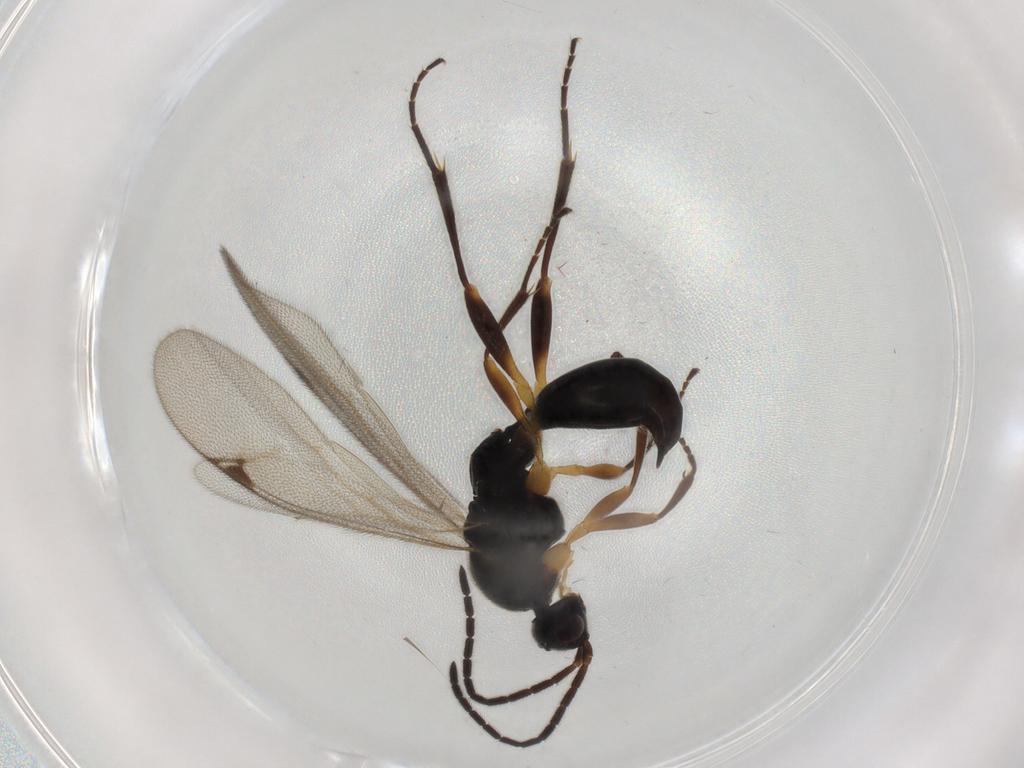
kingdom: Animalia
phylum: Arthropoda
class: Insecta
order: Hymenoptera
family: Proctotrupidae
